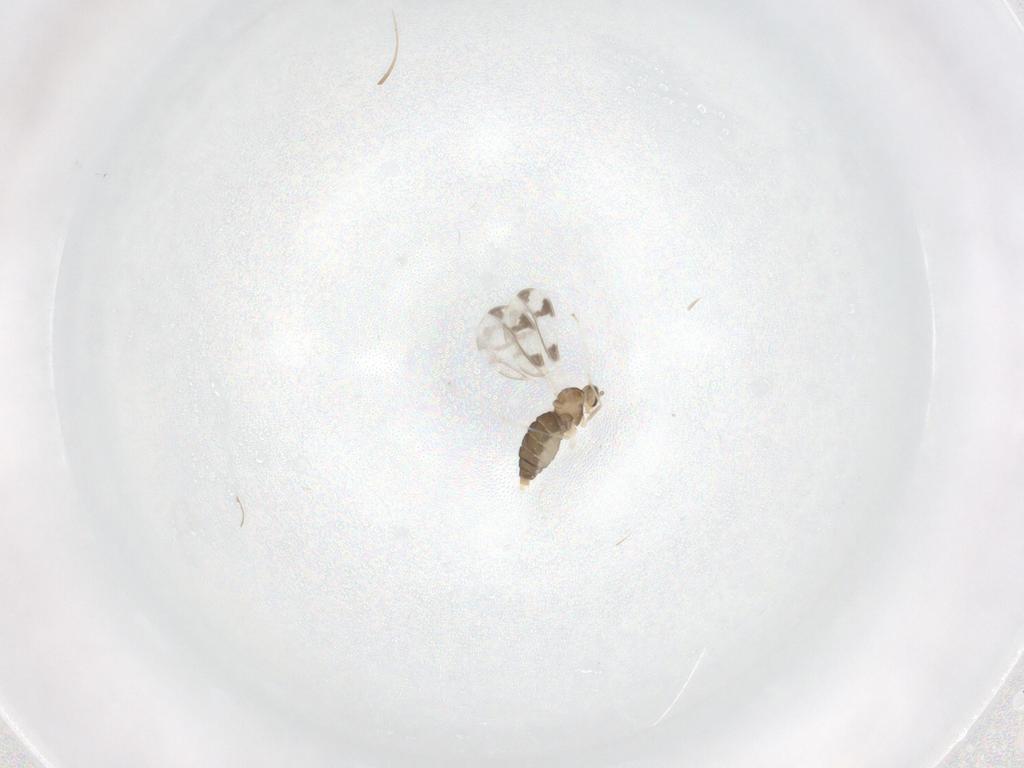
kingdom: Animalia
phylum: Arthropoda
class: Insecta
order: Diptera
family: Cecidomyiidae
